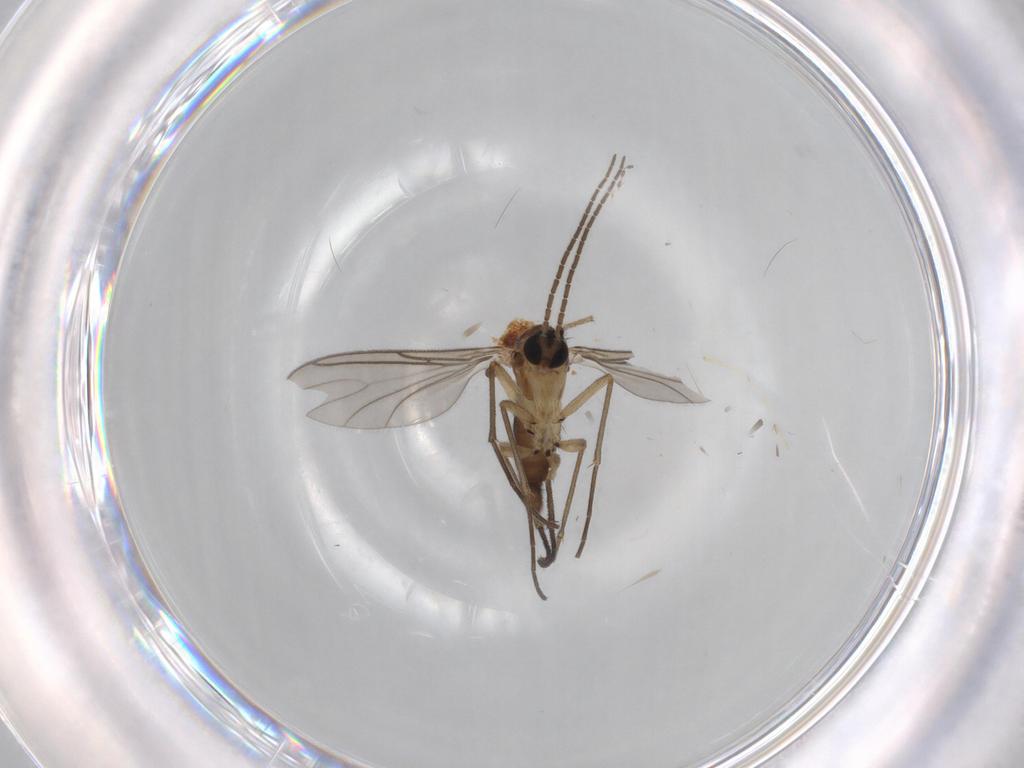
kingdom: Animalia
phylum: Arthropoda
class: Insecta
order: Diptera
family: Sciaridae
